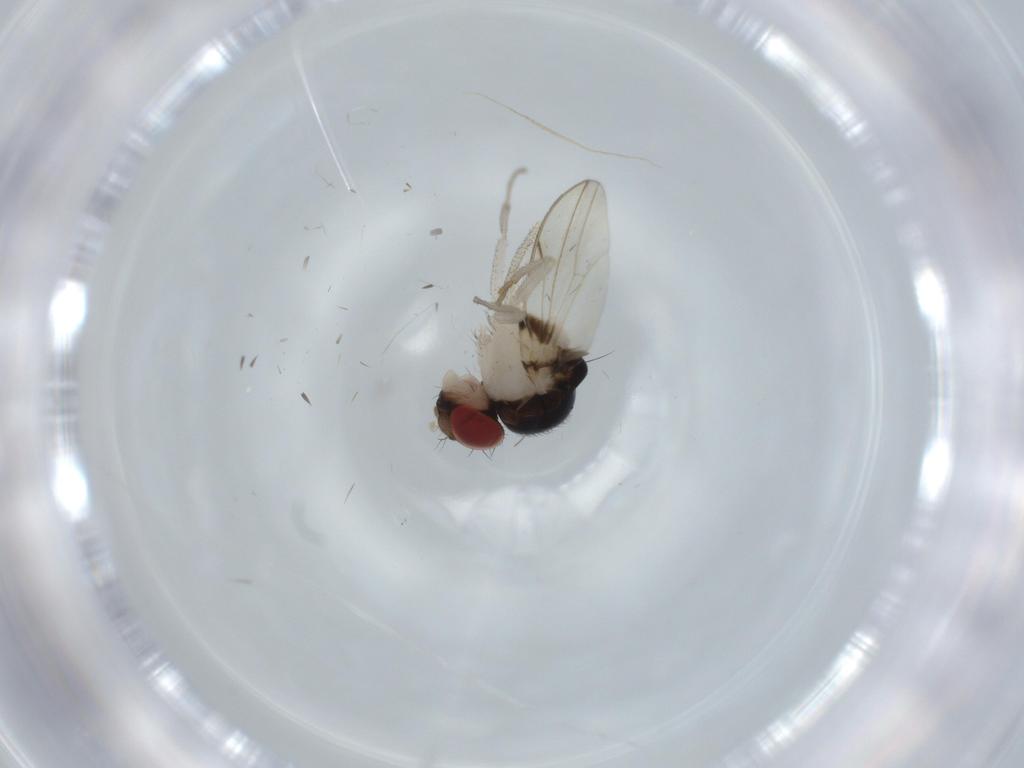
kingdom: Animalia
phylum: Arthropoda
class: Insecta
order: Diptera
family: Drosophilidae
